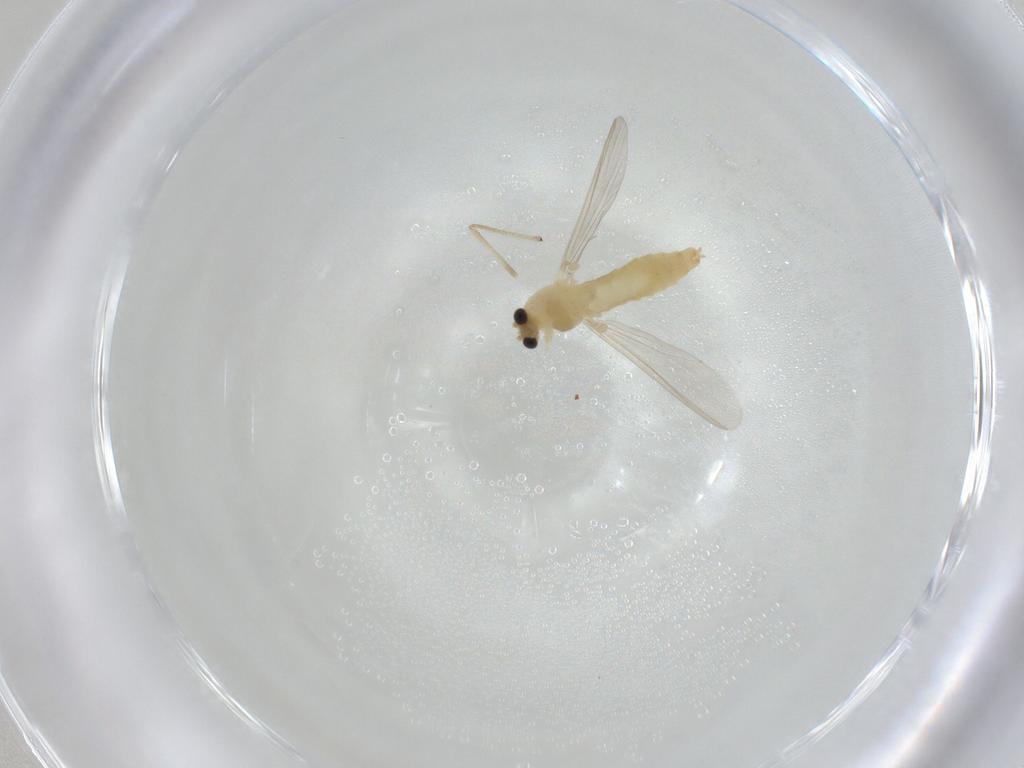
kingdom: Animalia
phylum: Arthropoda
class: Insecta
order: Diptera
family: Chironomidae
